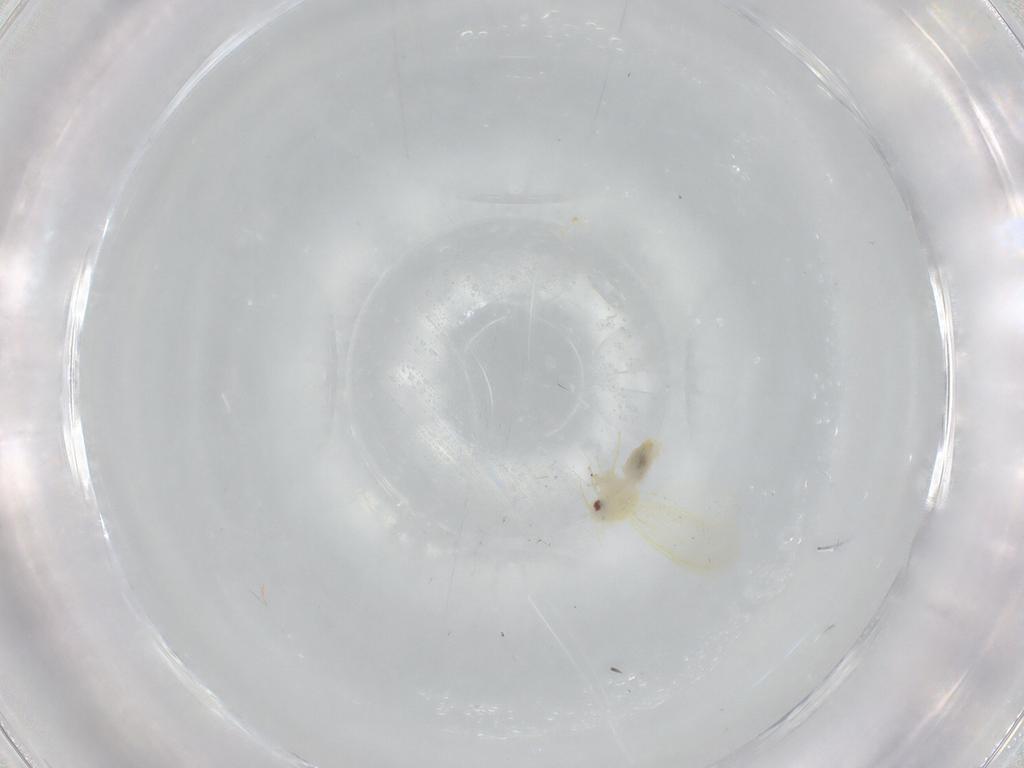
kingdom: Animalia
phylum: Arthropoda
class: Insecta
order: Hemiptera
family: Aleyrodidae
